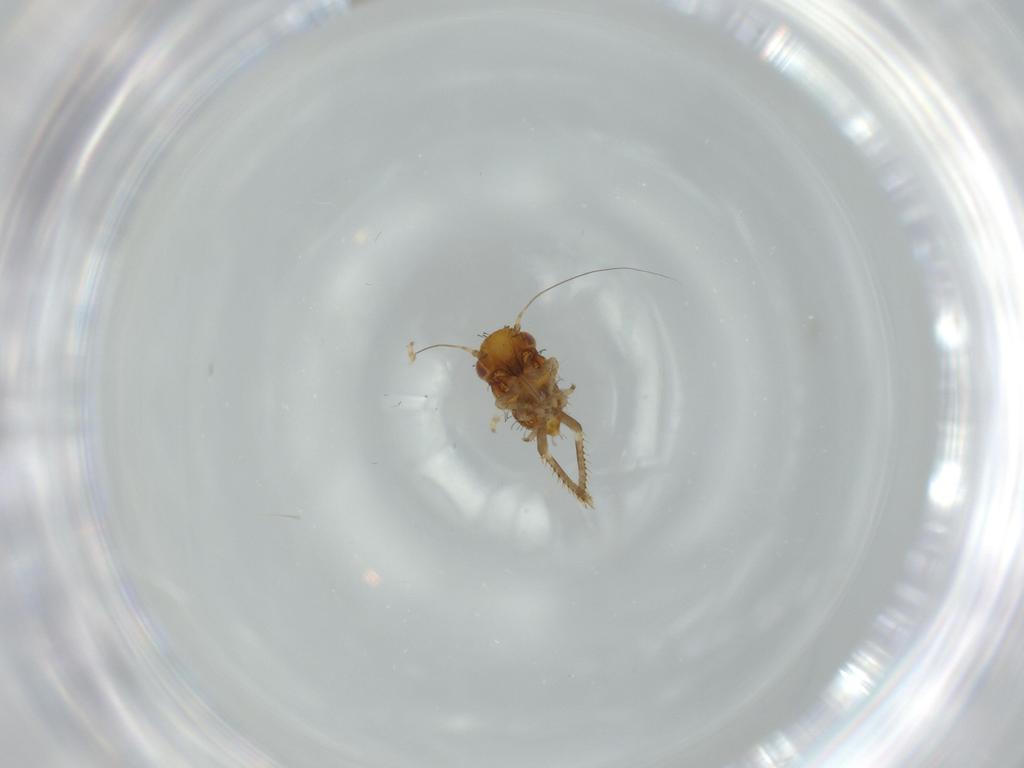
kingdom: Animalia
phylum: Arthropoda
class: Insecta
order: Hemiptera
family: Cicadellidae
